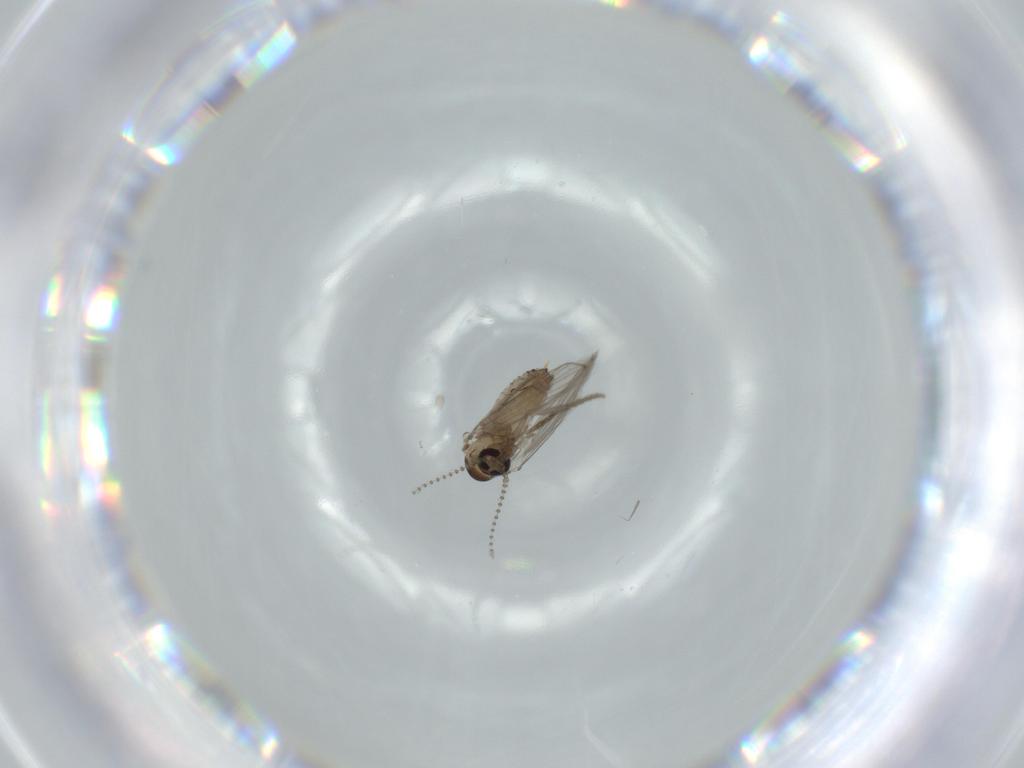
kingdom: Animalia
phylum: Arthropoda
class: Insecta
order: Diptera
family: Psychodidae
